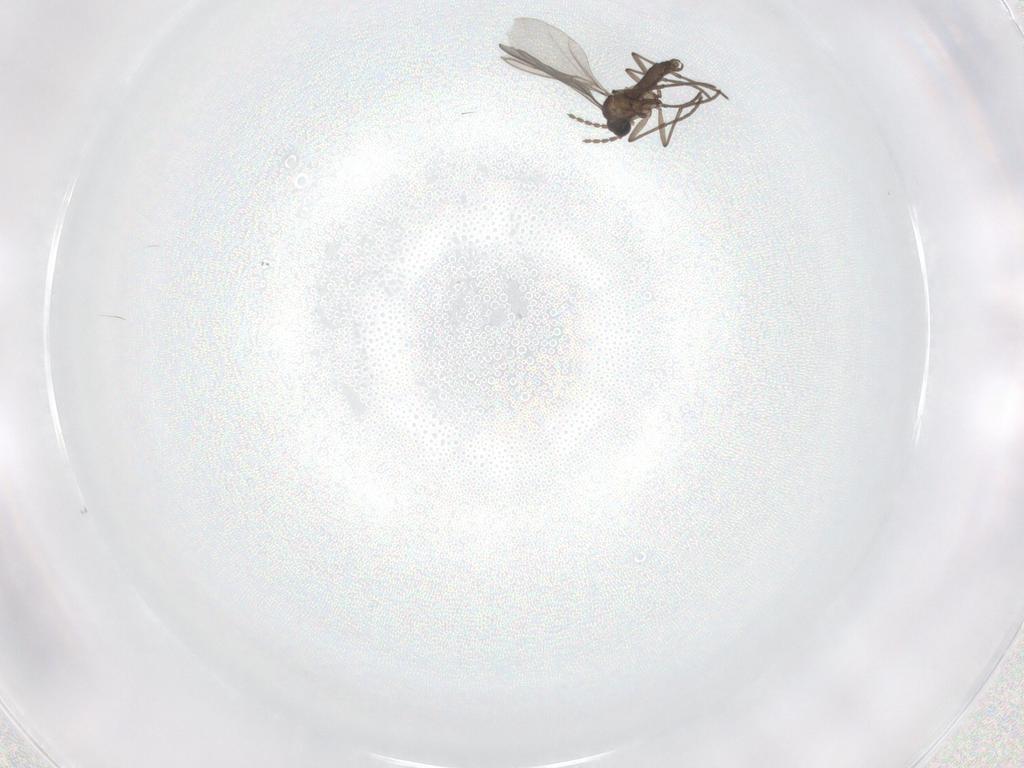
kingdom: Animalia
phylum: Arthropoda
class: Insecta
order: Diptera
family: Sciaridae
